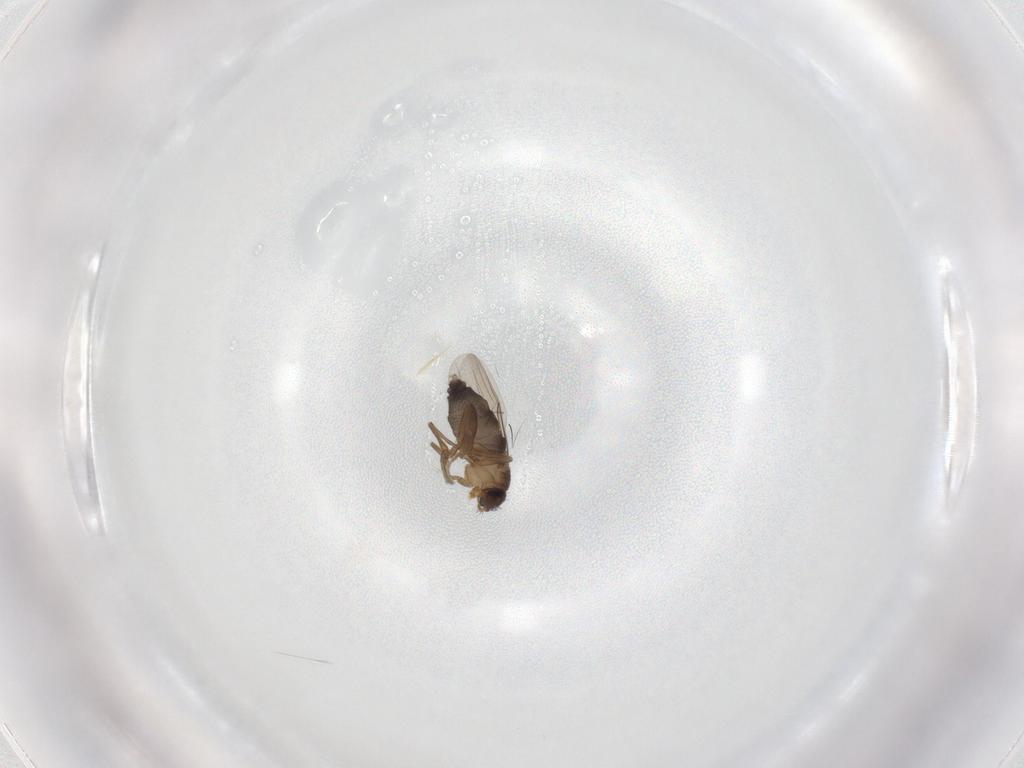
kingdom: Animalia
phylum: Arthropoda
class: Insecta
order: Diptera
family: Phoridae
